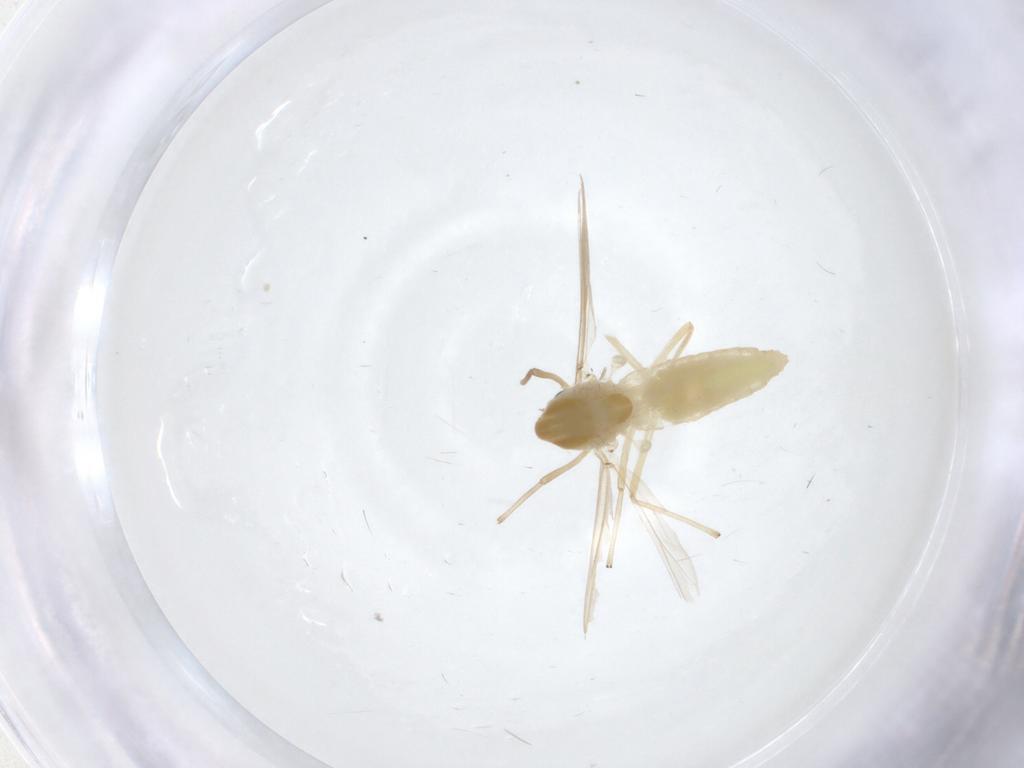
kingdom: Animalia
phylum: Arthropoda
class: Insecta
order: Diptera
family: Chironomidae
